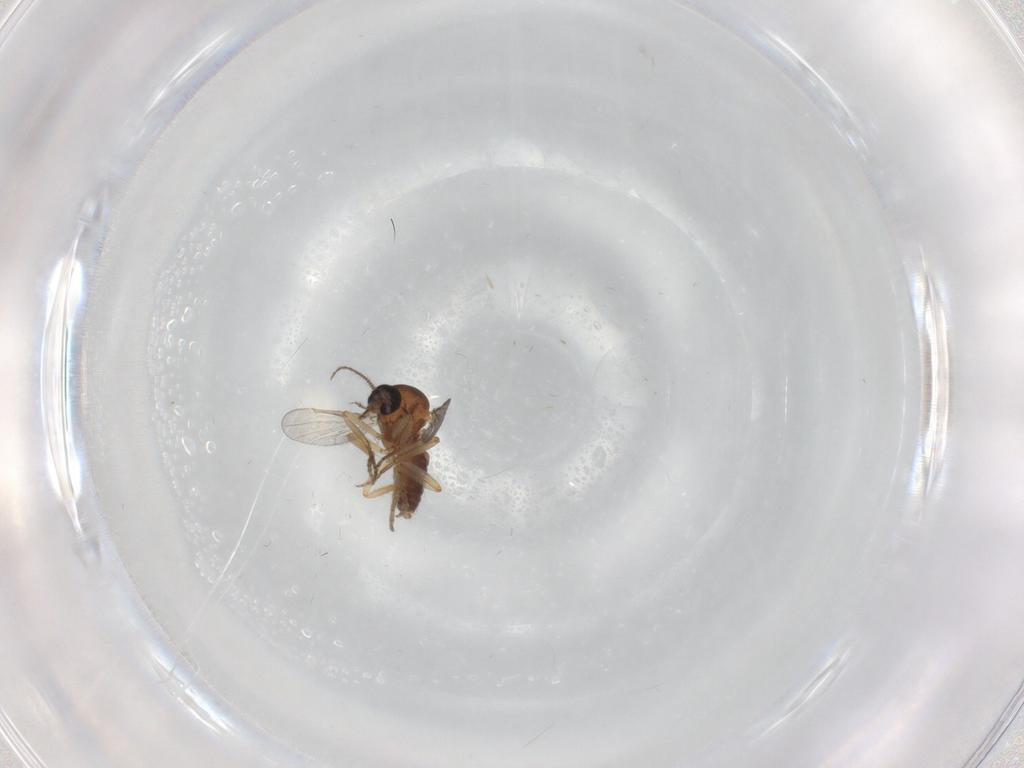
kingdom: Animalia
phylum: Arthropoda
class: Insecta
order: Diptera
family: Ceratopogonidae
